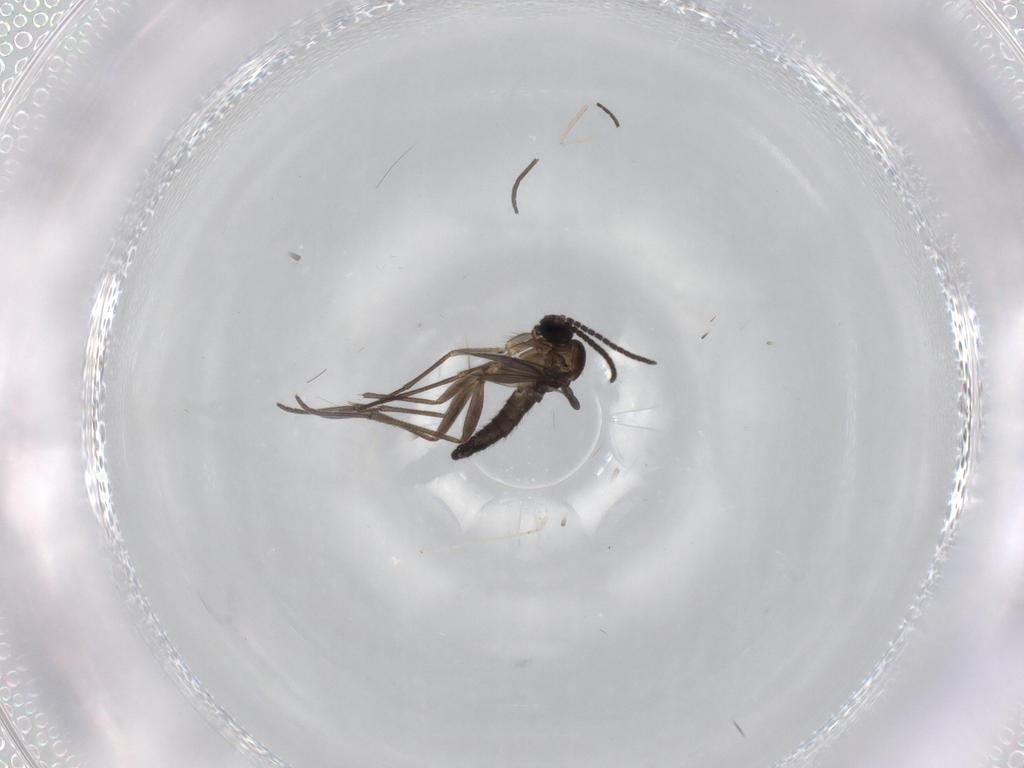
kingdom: Animalia
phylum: Arthropoda
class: Insecta
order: Diptera
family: Sciaridae
